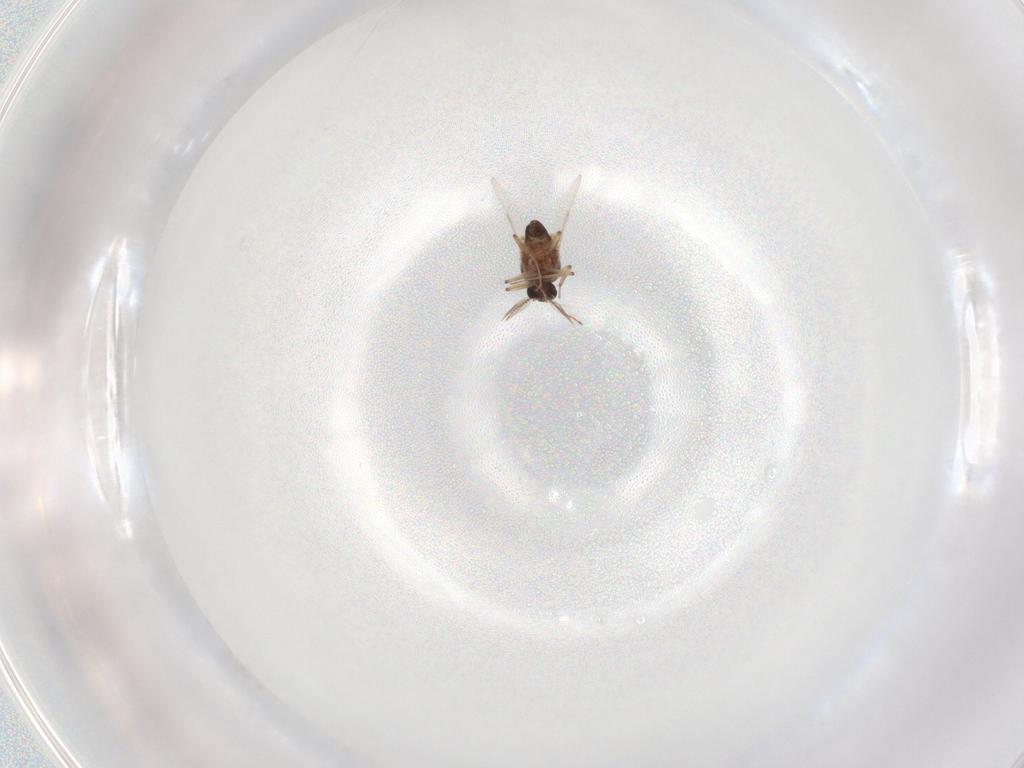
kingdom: Animalia
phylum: Arthropoda
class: Insecta
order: Diptera
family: Ceratopogonidae
